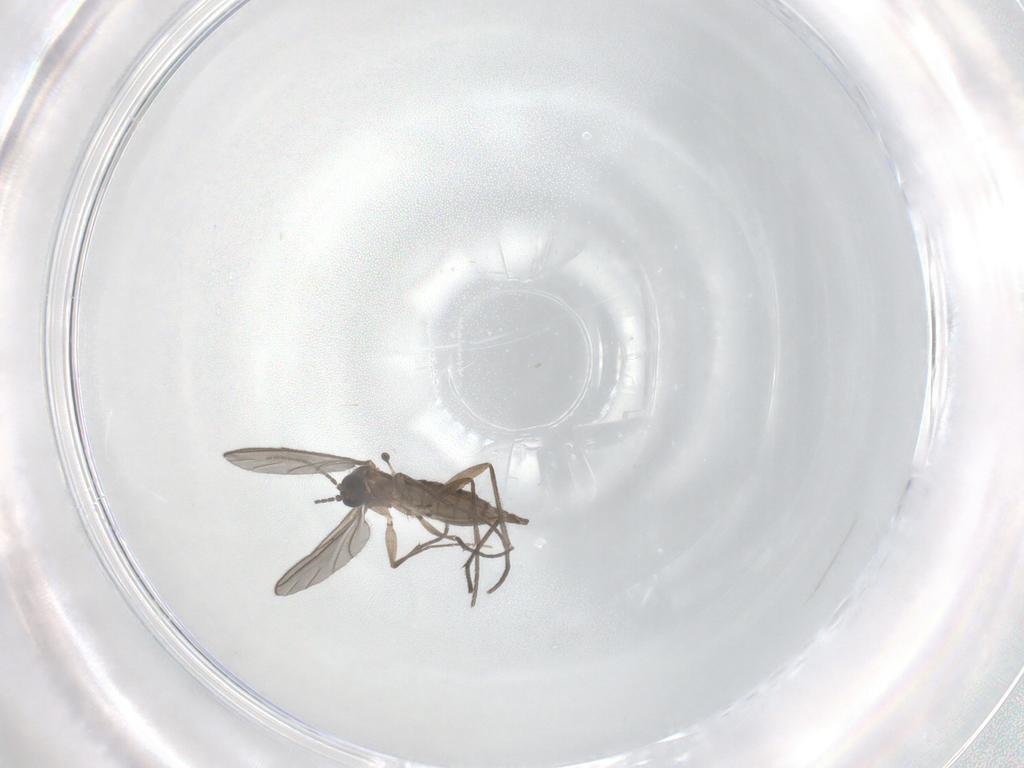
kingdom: Animalia
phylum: Arthropoda
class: Insecta
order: Diptera
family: Sciaridae
